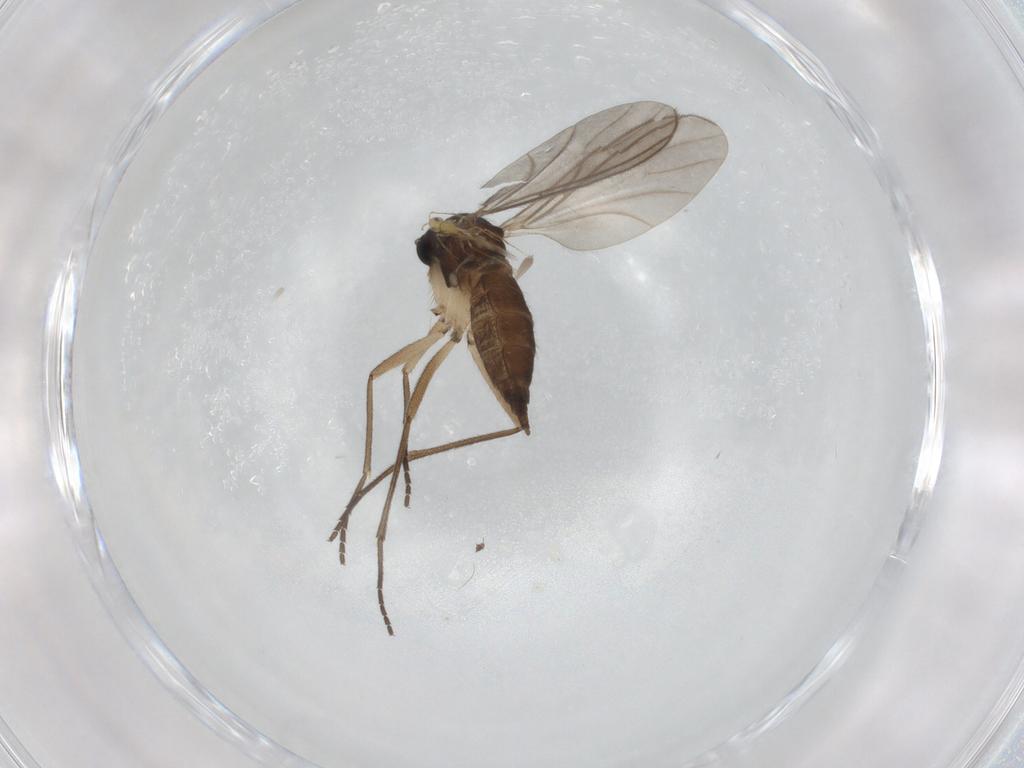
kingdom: Animalia
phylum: Arthropoda
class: Insecta
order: Diptera
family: Sciaridae
